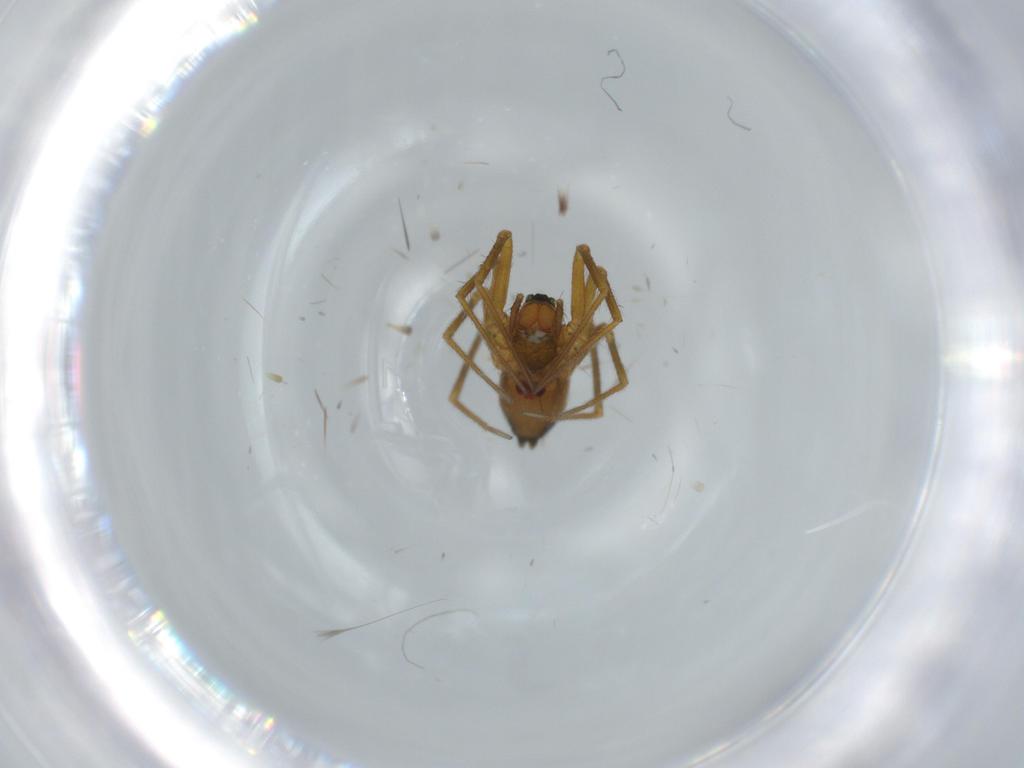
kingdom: Animalia
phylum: Arthropoda
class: Arachnida
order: Araneae
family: Linyphiidae
